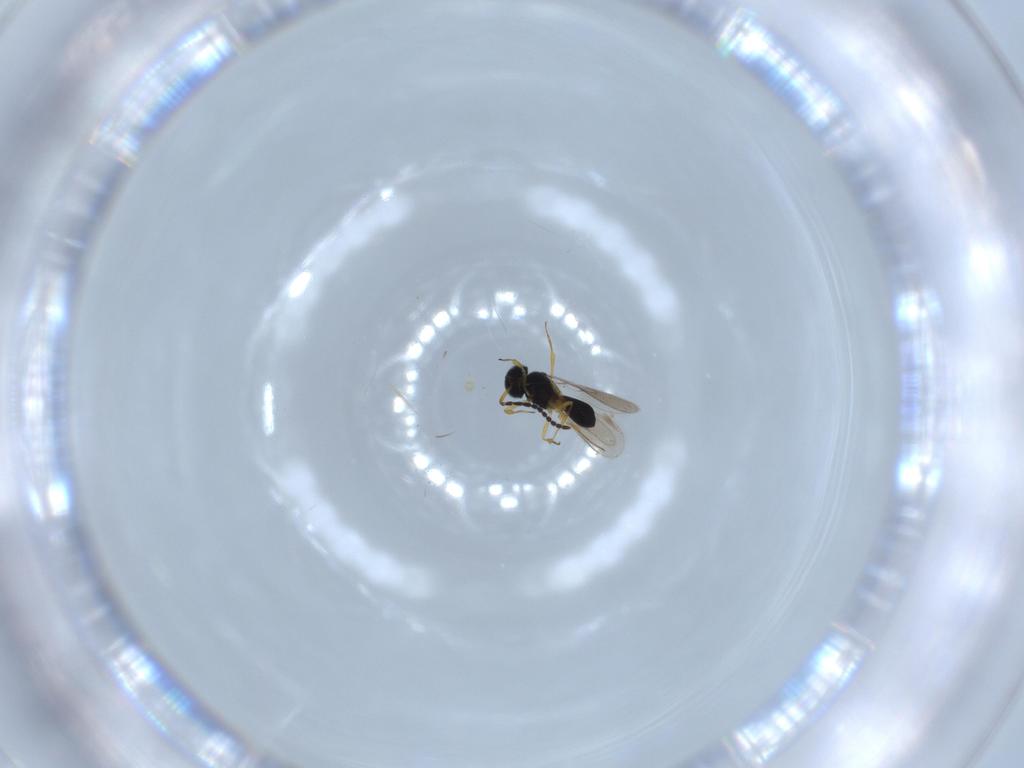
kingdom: Animalia
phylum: Arthropoda
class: Insecta
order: Hymenoptera
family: Scelionidae
